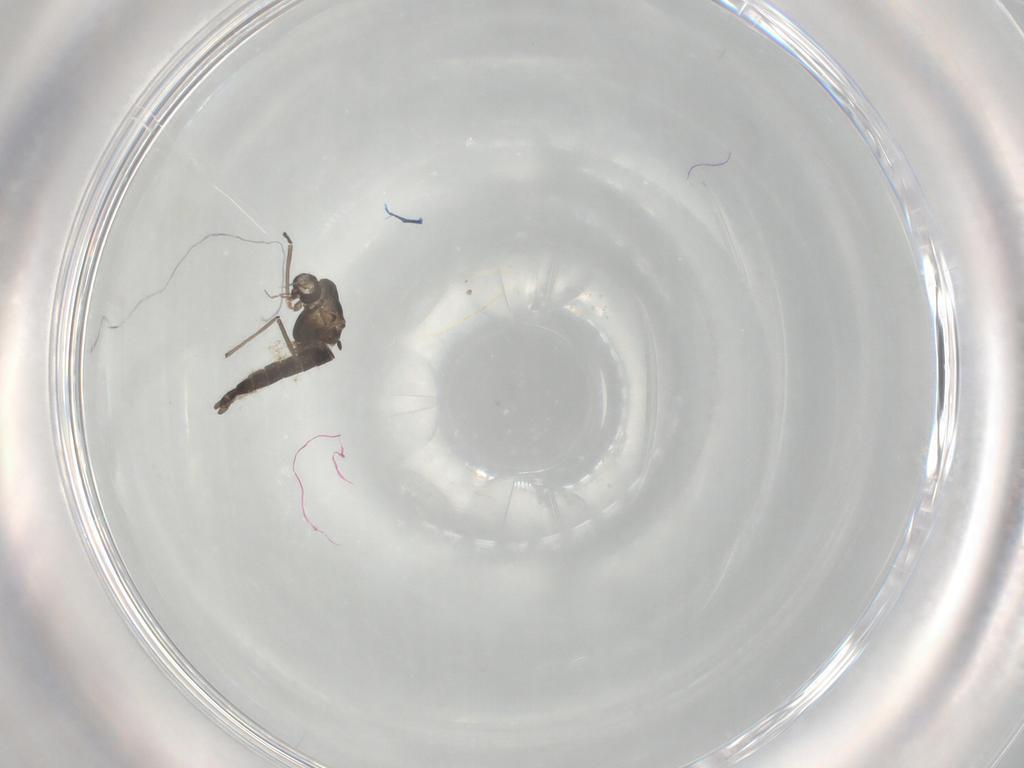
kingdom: Animalia
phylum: Arthropoda
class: Insecta
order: Diptera
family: Chironomidae
